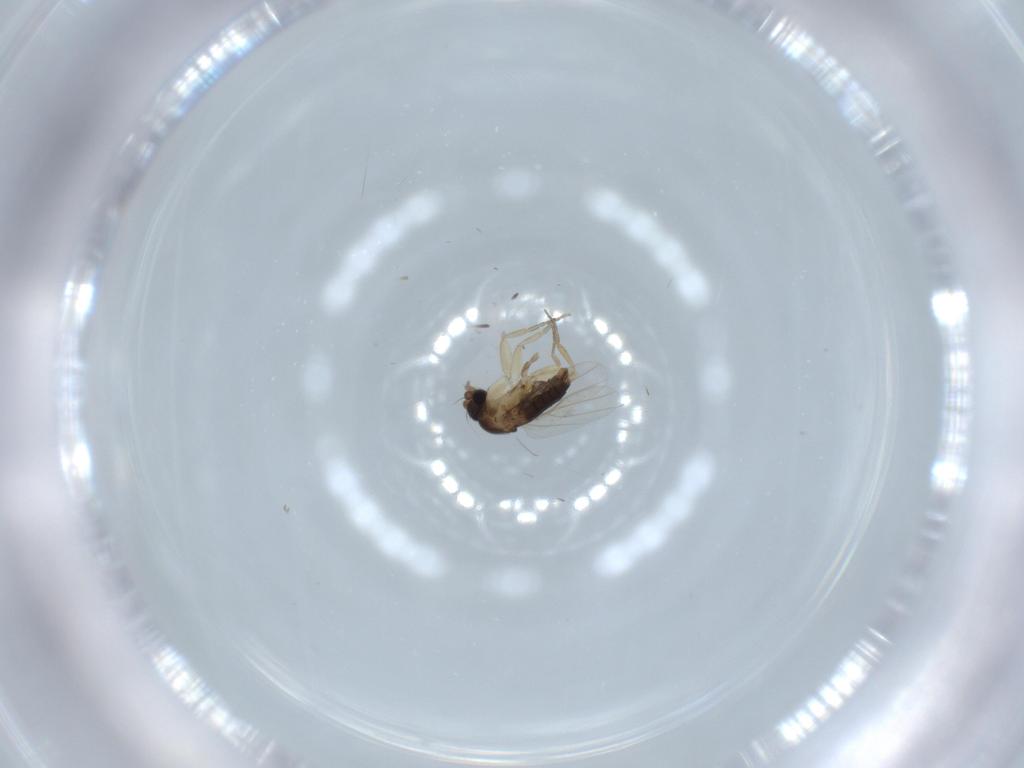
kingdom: Animalia
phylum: Arthropoda
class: Insecta
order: Diptera
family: Phoridae
